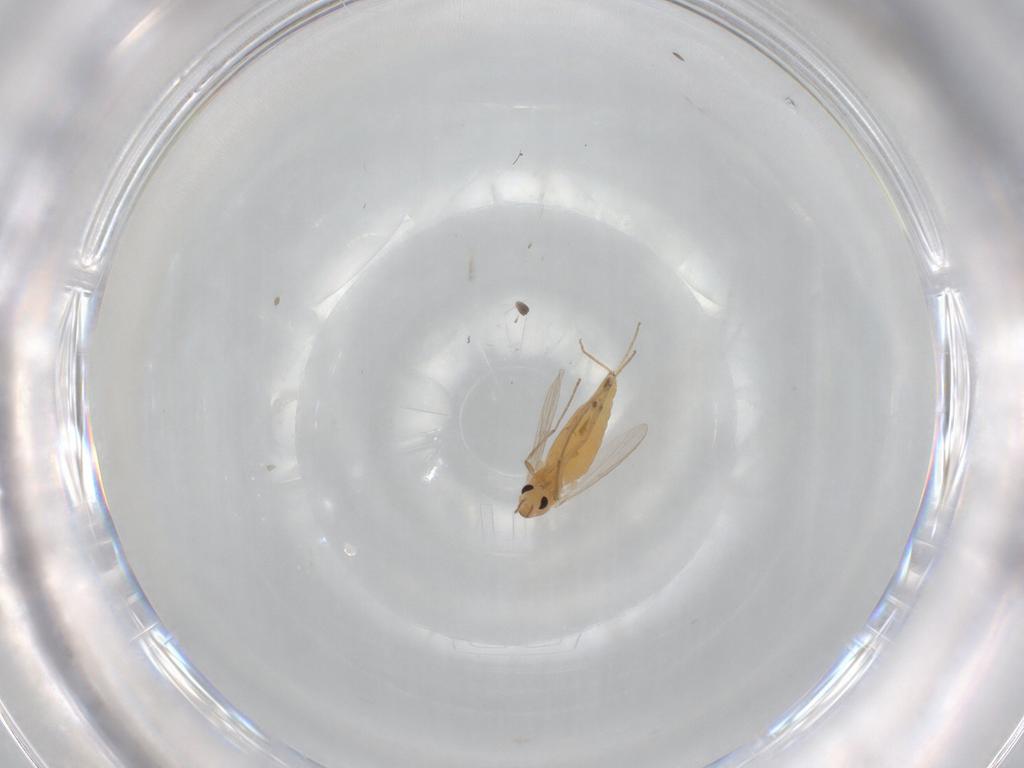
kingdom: Animalia
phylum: Arthropoda
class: Insecta
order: Diptera
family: Chironomidae
